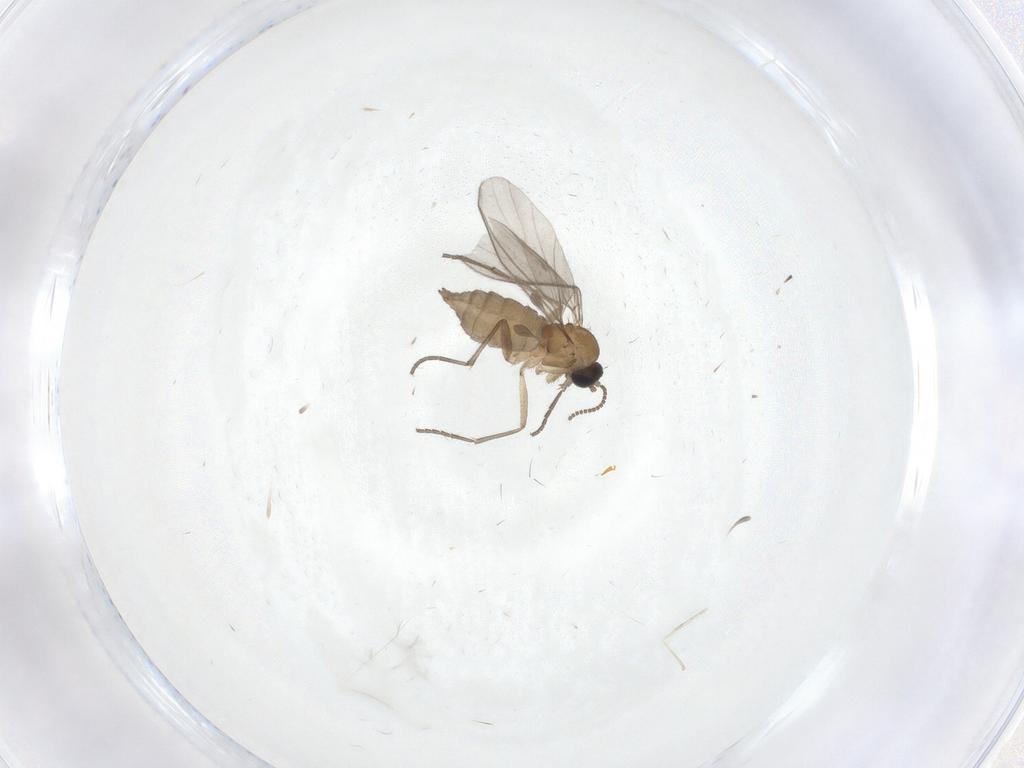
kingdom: Animalia
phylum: Arthropoda
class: Insecta
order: Diptera
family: Sciaridae
